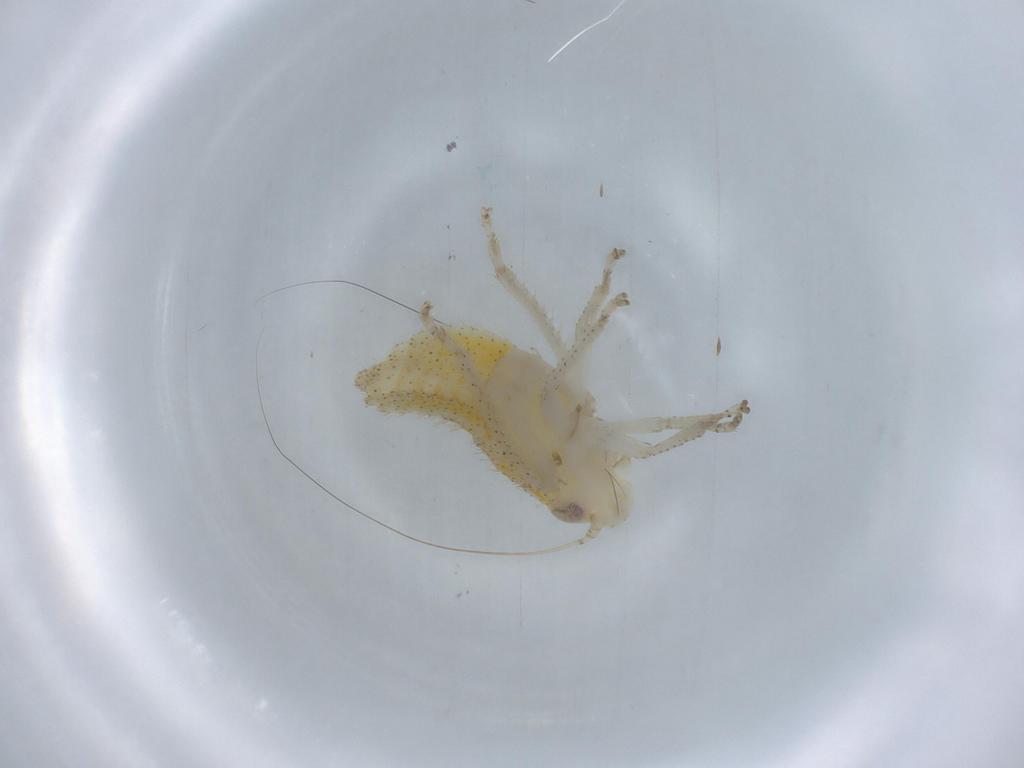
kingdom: Animalia
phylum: Arthropoda
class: Insecta
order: Hemiptera
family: Cicadellidae
